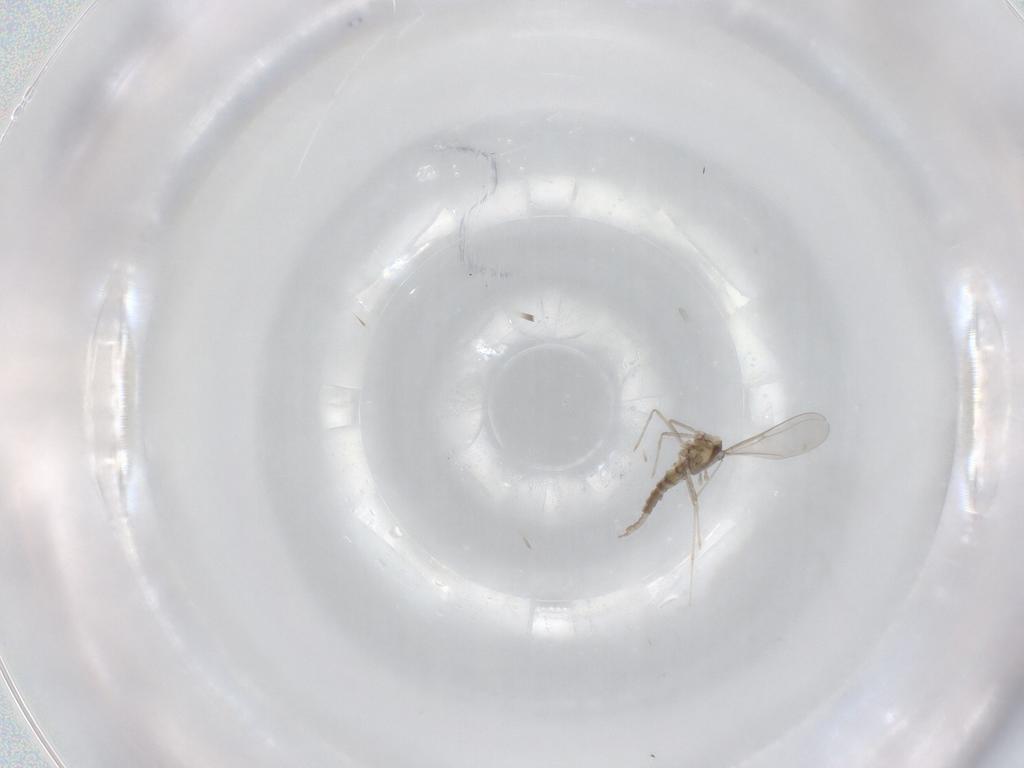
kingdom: Animalia
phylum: Arthropoda
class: Insecta
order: Diptera
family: Cecidomyiidae
